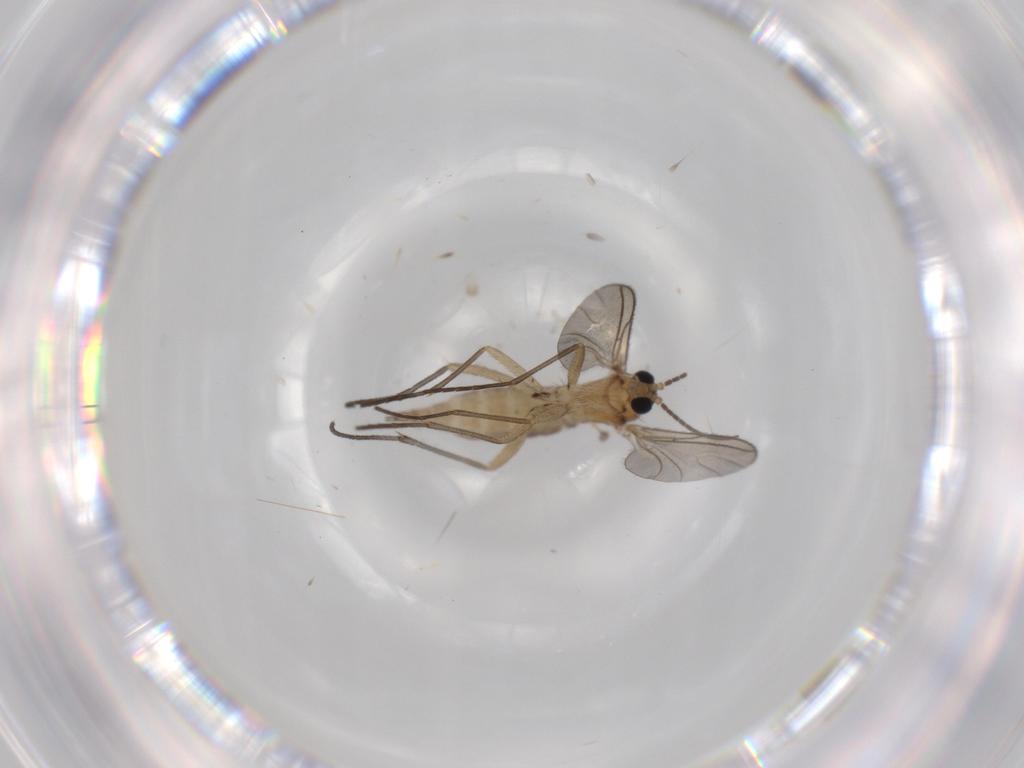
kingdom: Animalia
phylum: Arthropoda
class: Insecta
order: Diptera
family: Sciaridae
